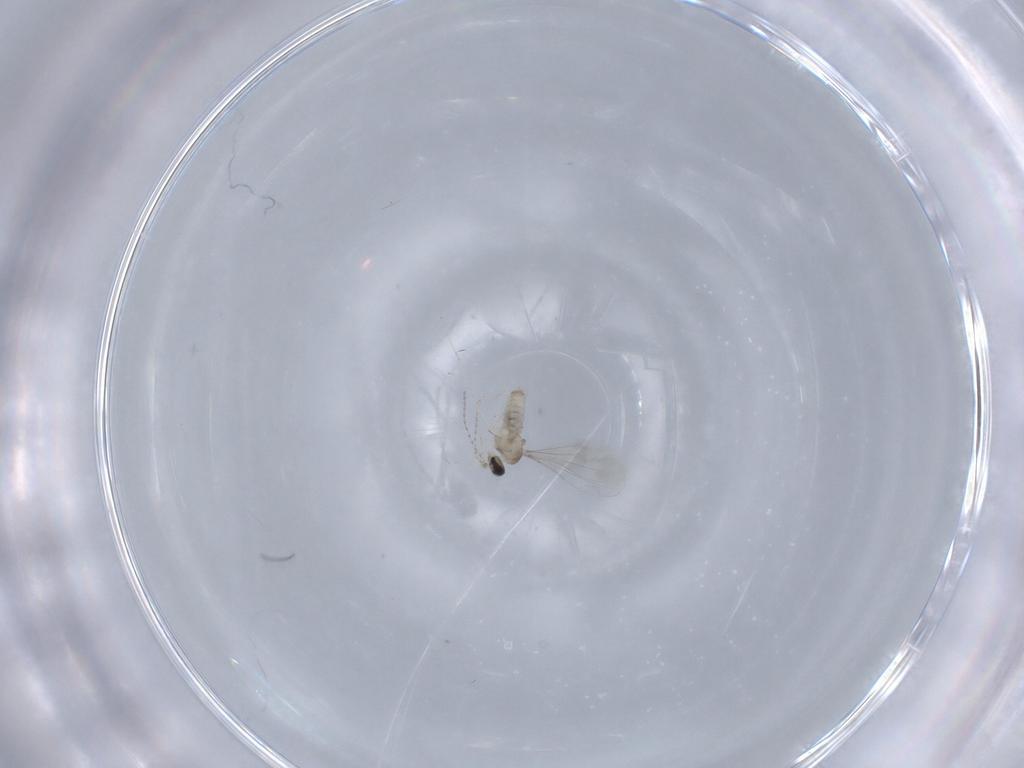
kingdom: Animalia
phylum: Arthropoda
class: Insecta
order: Diptera
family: Cecidomyiidae
